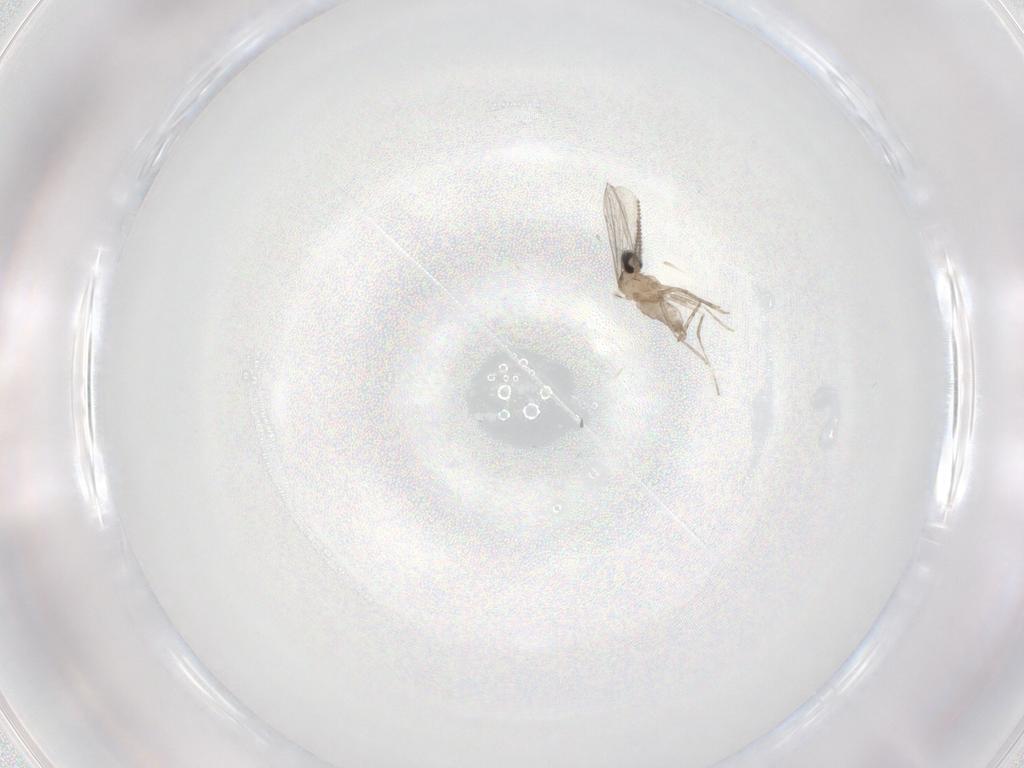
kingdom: Animalia
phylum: Arthropoda
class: Insecta
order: Diptera
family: Cecidomyiidae
